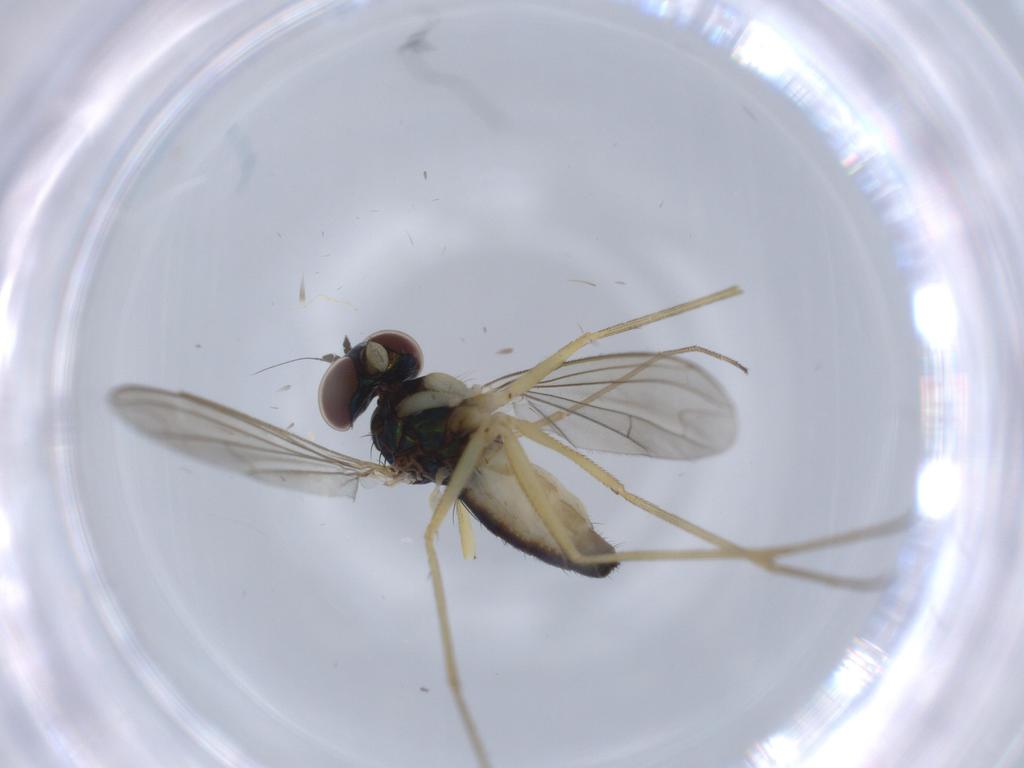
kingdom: Animalia
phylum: Arthropoda
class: Insecta
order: Diptera
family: Dolichopodidae
